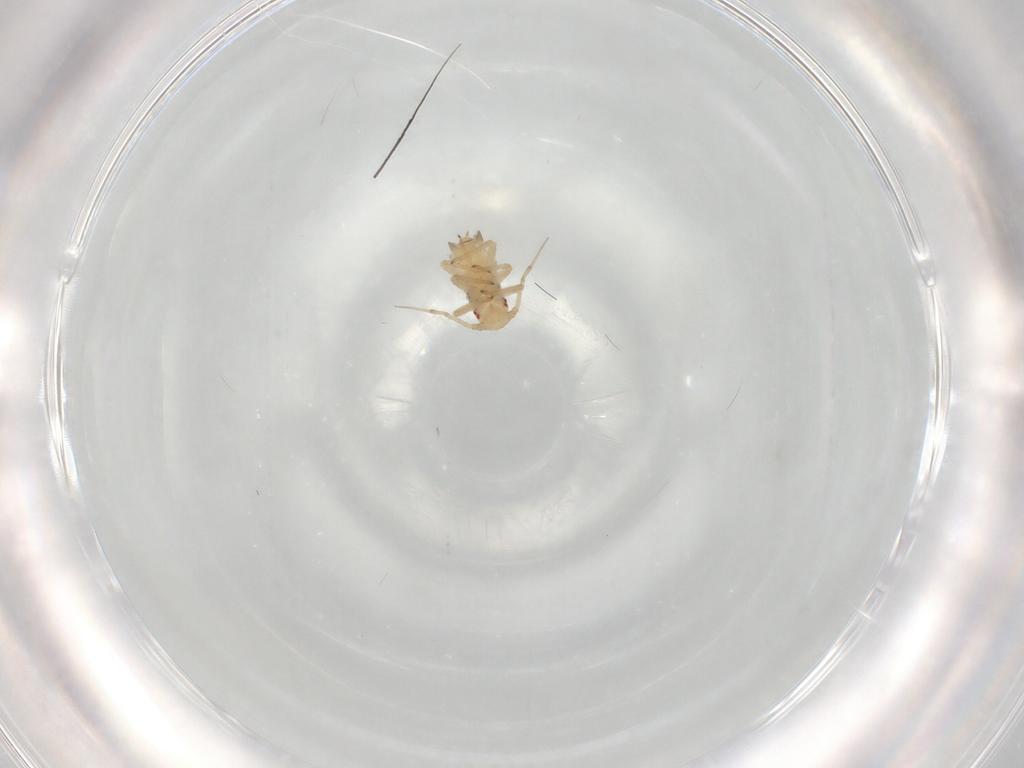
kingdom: Animalia
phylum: Arthropoda
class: Insecta
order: Hemiptera
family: Aphididae
